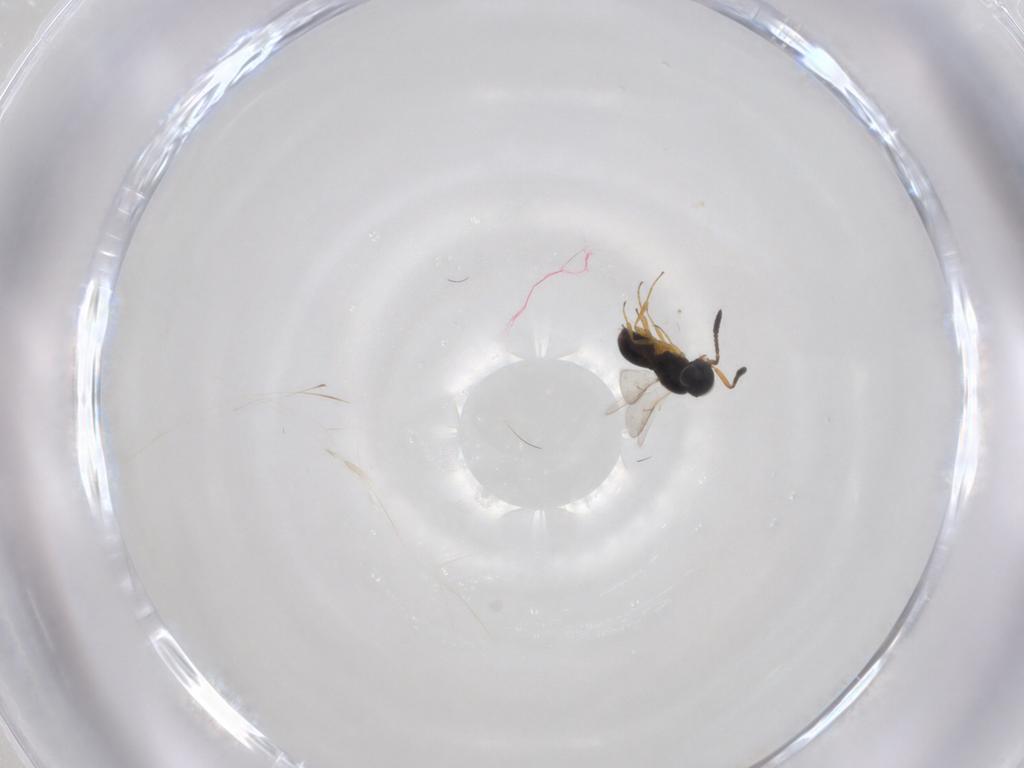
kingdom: Animalia
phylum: Arthropoda
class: Insecta
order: Hymenoptera
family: Scelionidae
